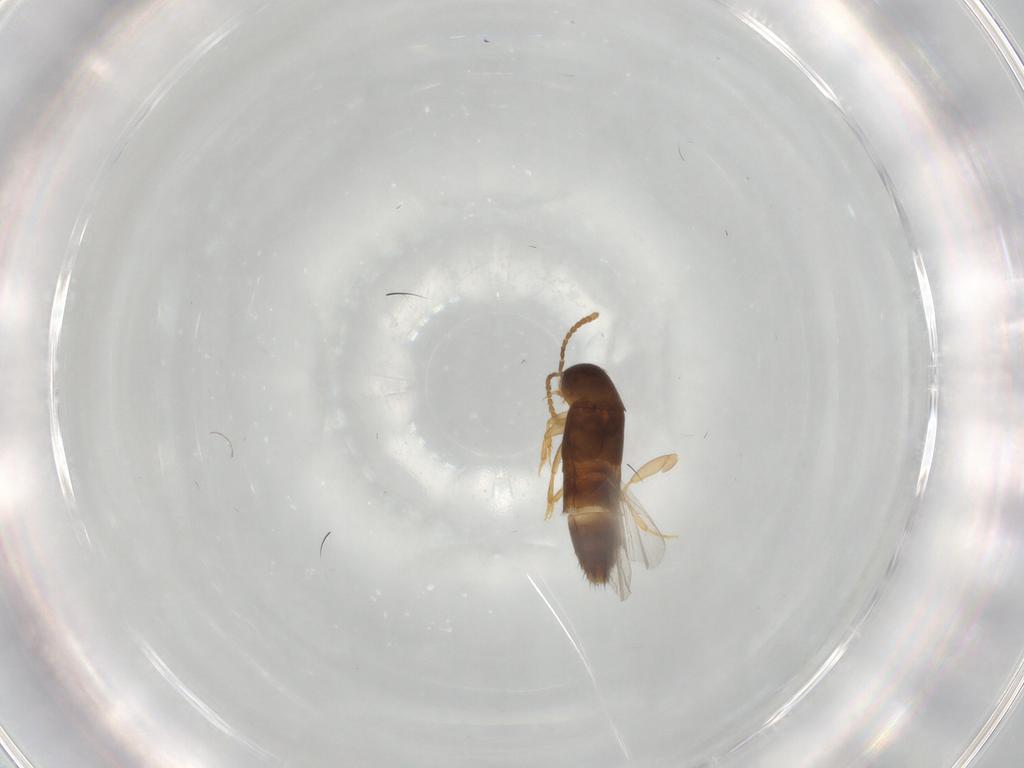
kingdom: Animalia
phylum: Arthropoda
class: Insecta
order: Coleoptera
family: Staphylinidae
